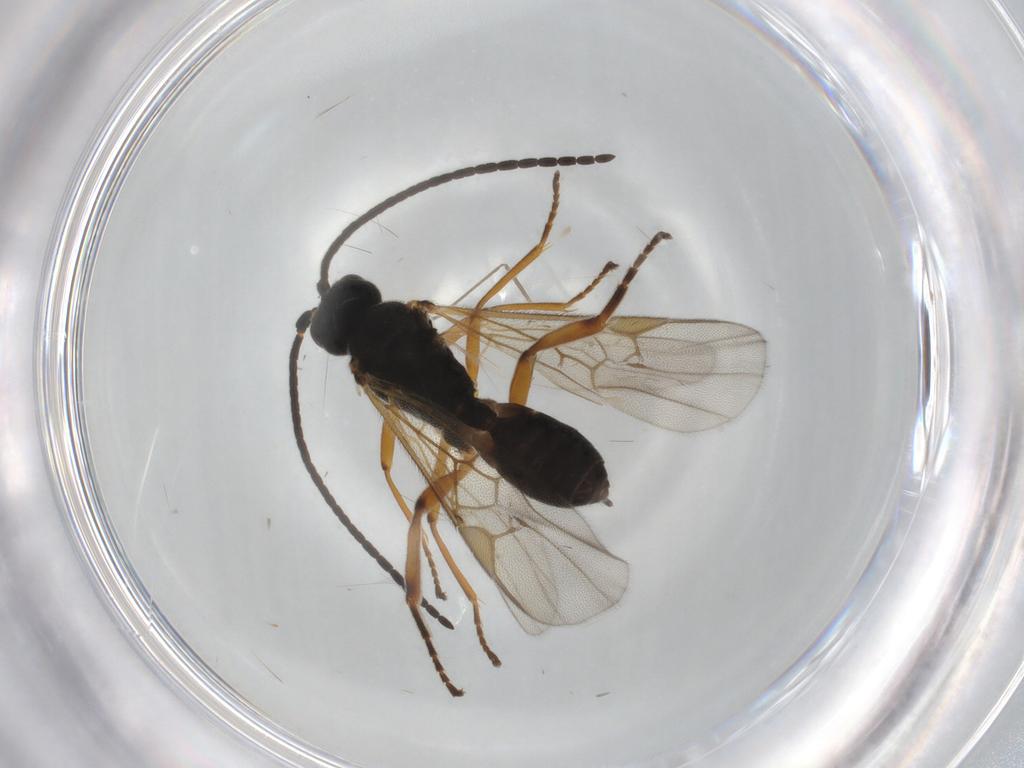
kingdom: Animalia
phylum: Arthropoda
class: Insecta
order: Hymenoptera
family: Braconidae
